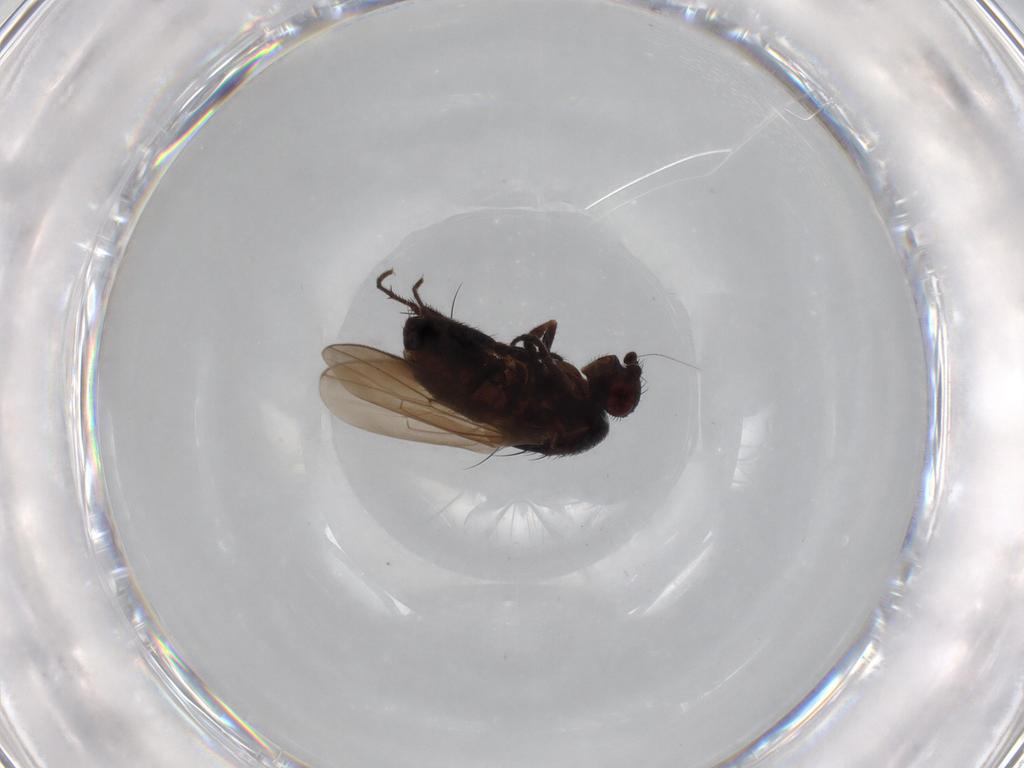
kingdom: Animalia
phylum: Arthropoda
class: Insecta
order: Diptera
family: Sphaeroceridae
